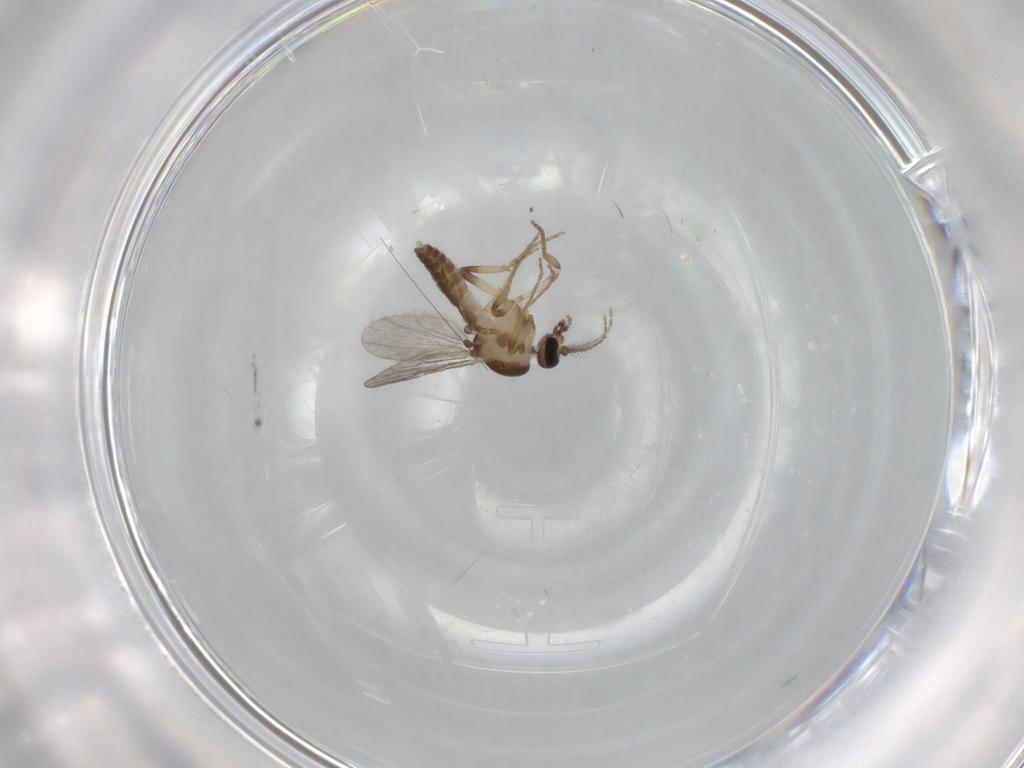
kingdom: Animalia
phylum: Arthropoda
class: Insecta
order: Diptera
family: Ceratopogonidae
